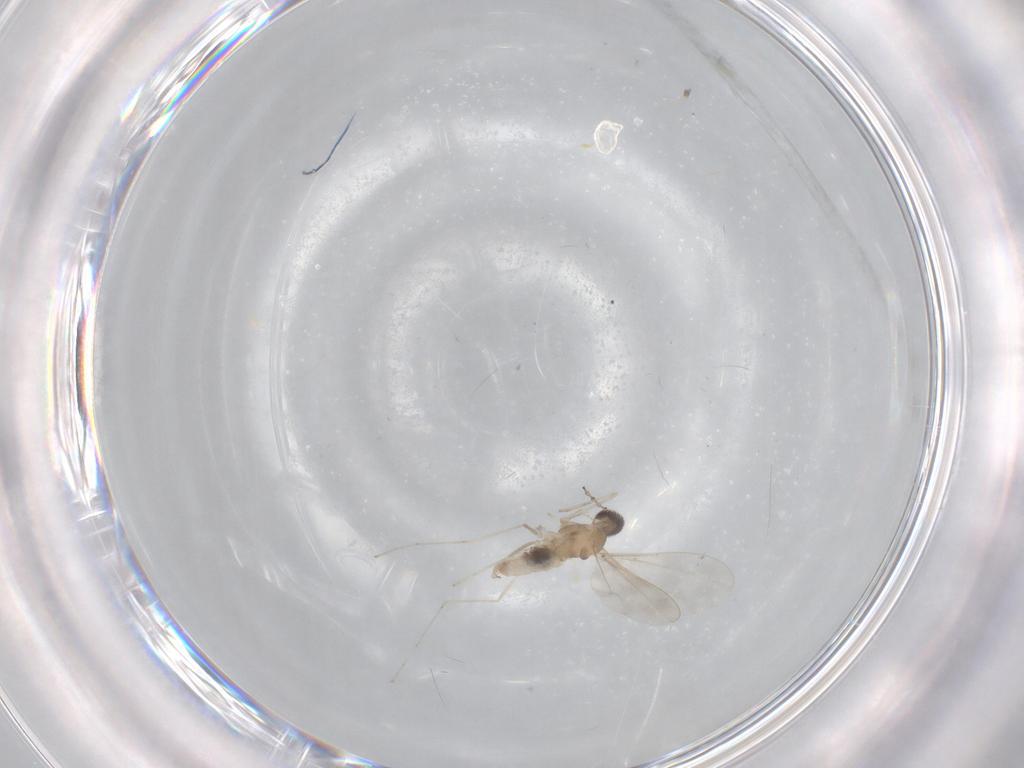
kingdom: Animalia
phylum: Arthropoda
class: Insecta
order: Diptera
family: Cecidomyiidae
